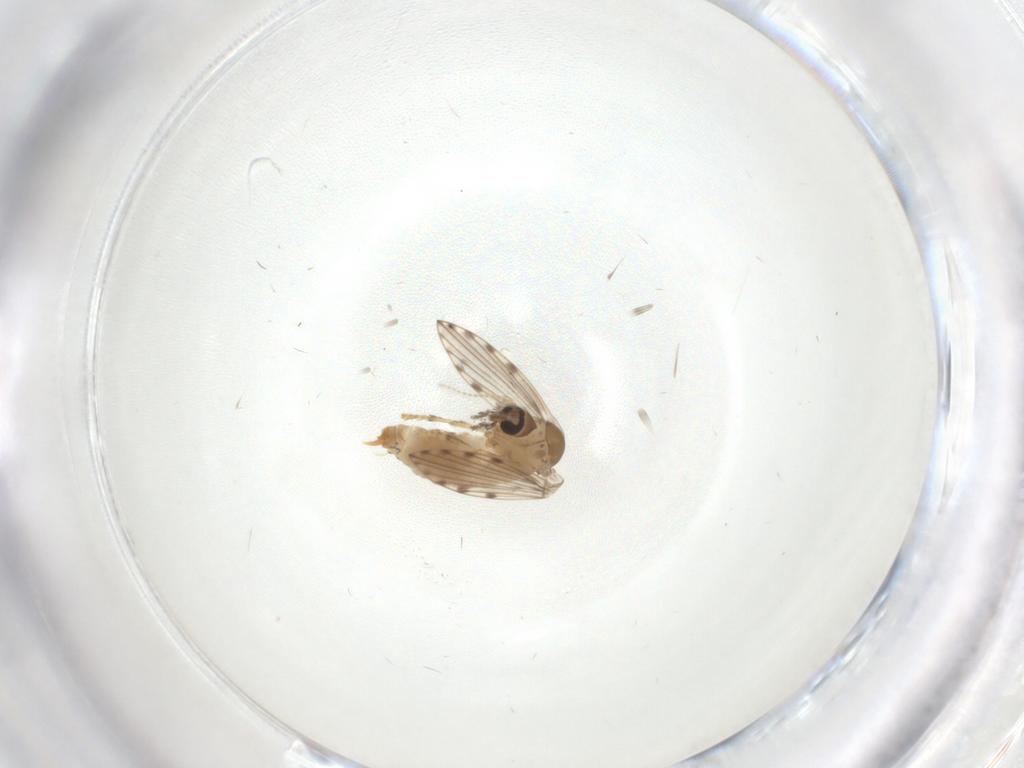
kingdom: Animalia
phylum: Arthropoda
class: Insecta
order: Diptera
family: Psychodidae
